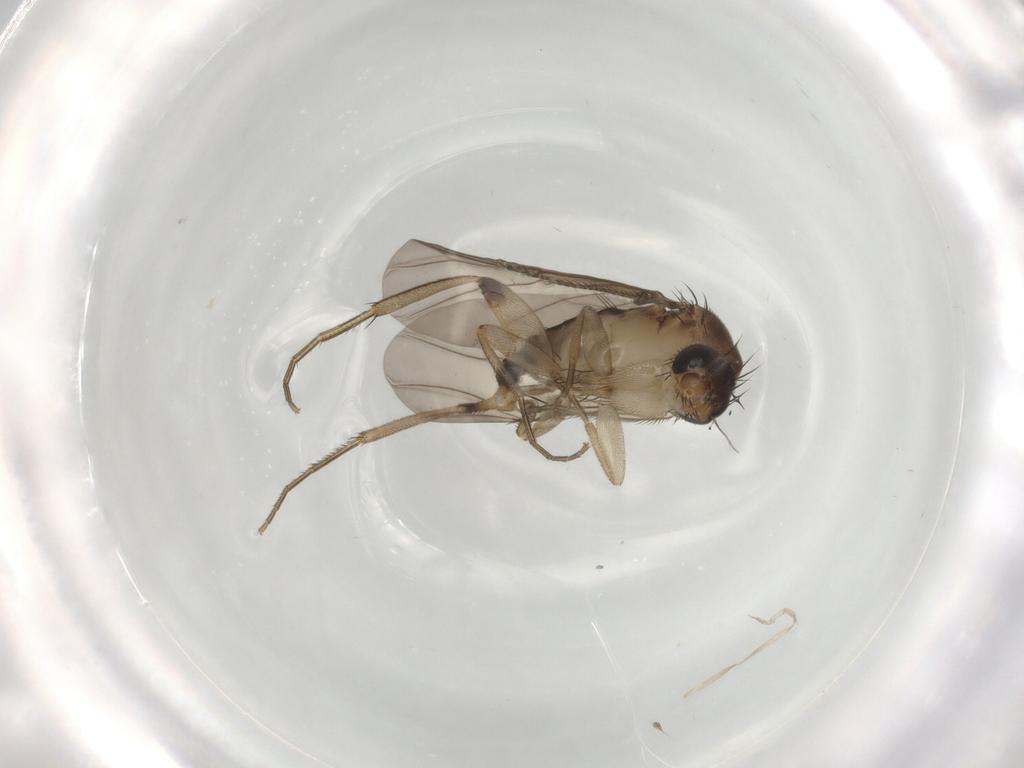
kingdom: Animalia
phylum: Arthropoda
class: Insecta
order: Diptera
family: Phoridae
